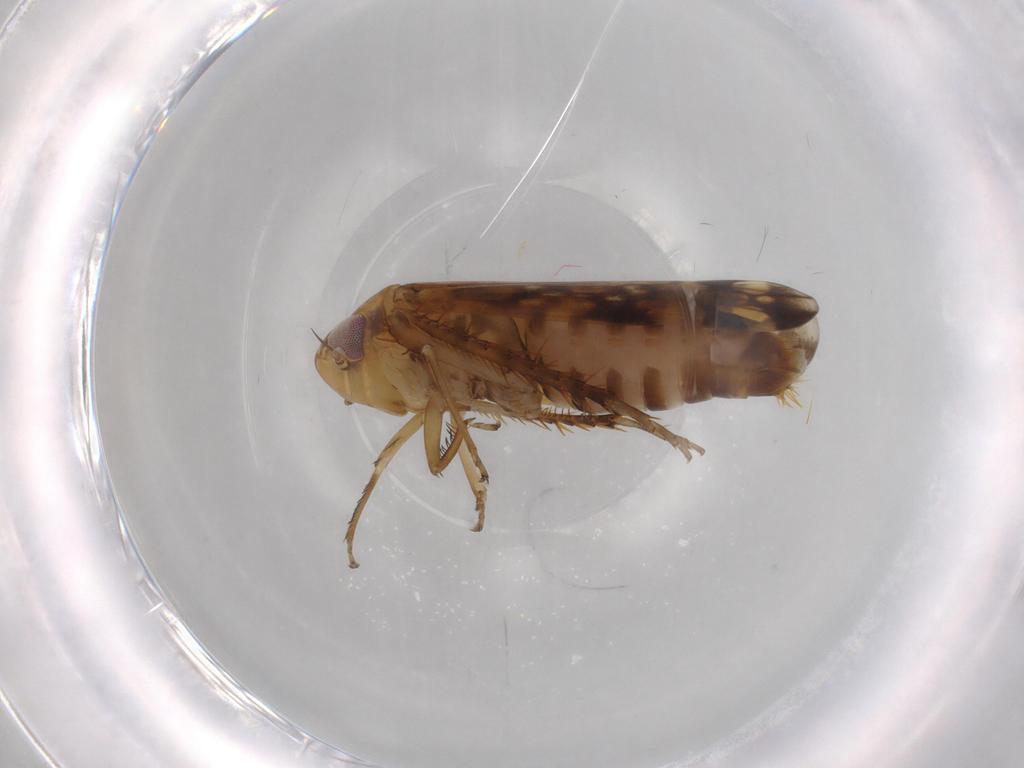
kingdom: Animalia
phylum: Arthropoda
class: Insecta
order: Hemiptera
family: Cicadellidae
